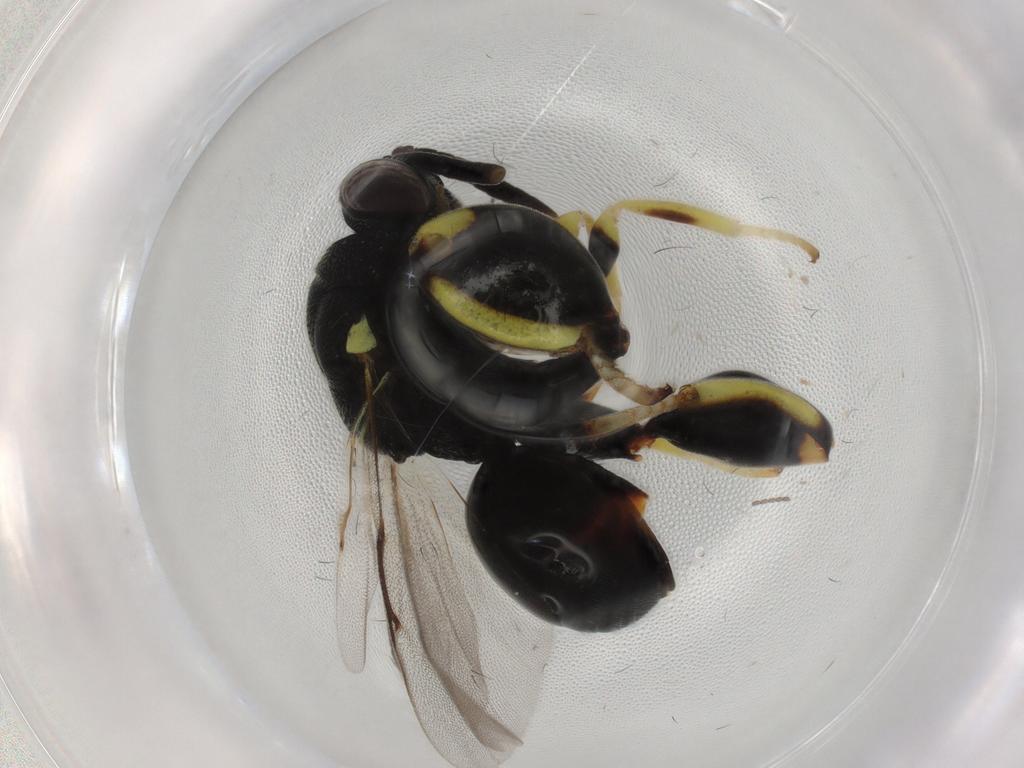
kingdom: Animalia
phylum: Arthropoda
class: Insecta
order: Hymenoptera
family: Chalcididae
